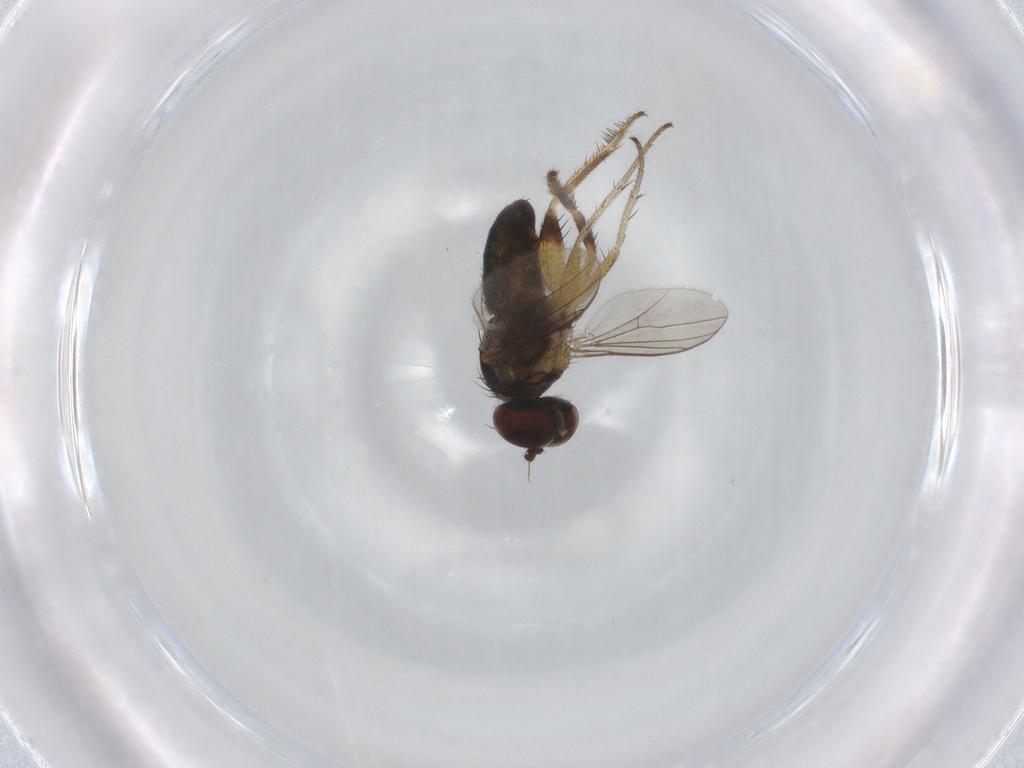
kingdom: Animalia
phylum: Arthropoda
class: Insecta
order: Diptera
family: Dolichopodidae
